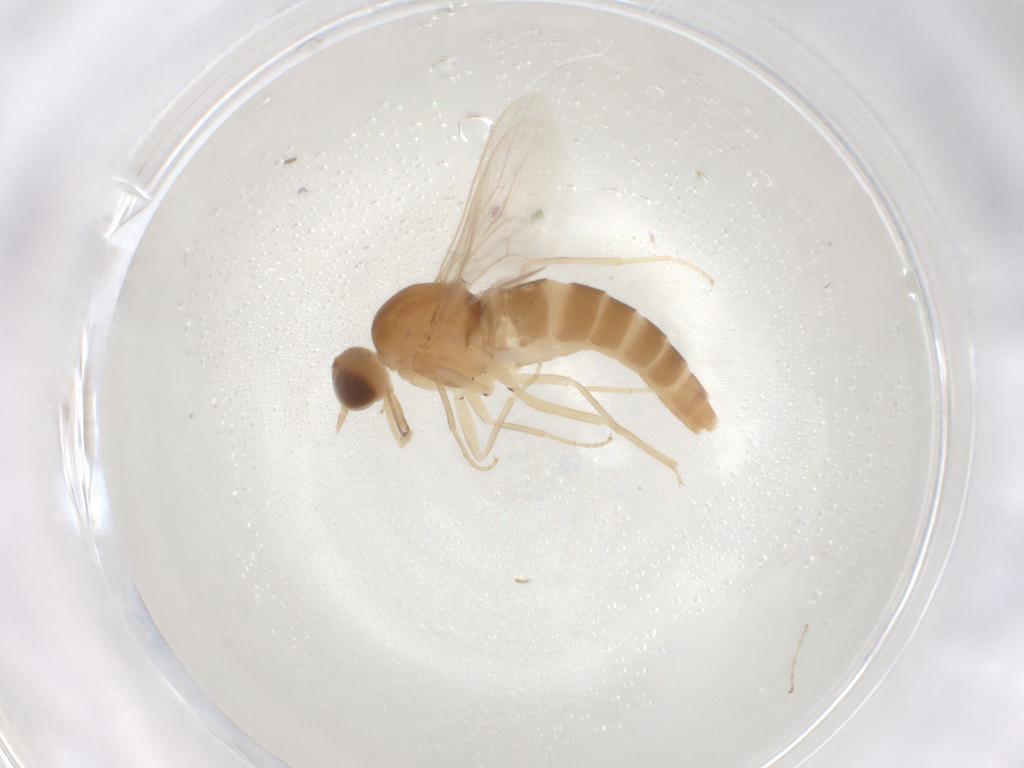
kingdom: Animalia
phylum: Arthropoda
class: Insecta
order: Diptera
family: Scenopinidae
